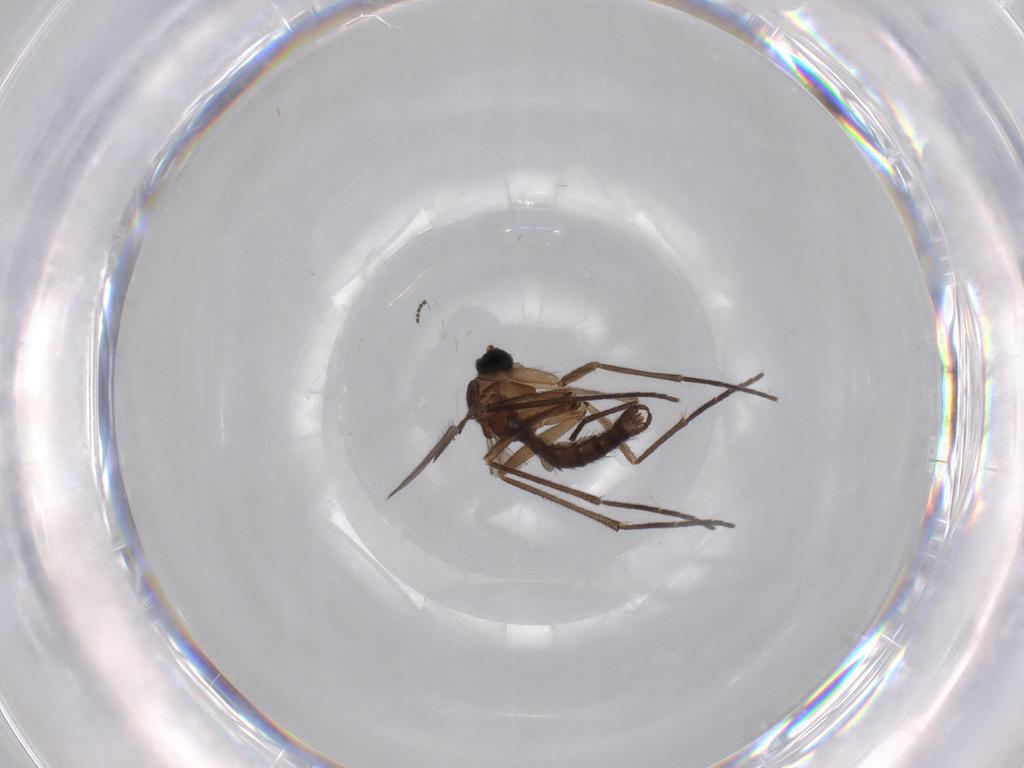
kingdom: Animalia
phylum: Arthropoda
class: Insecta
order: Diptera
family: Sciaridae
